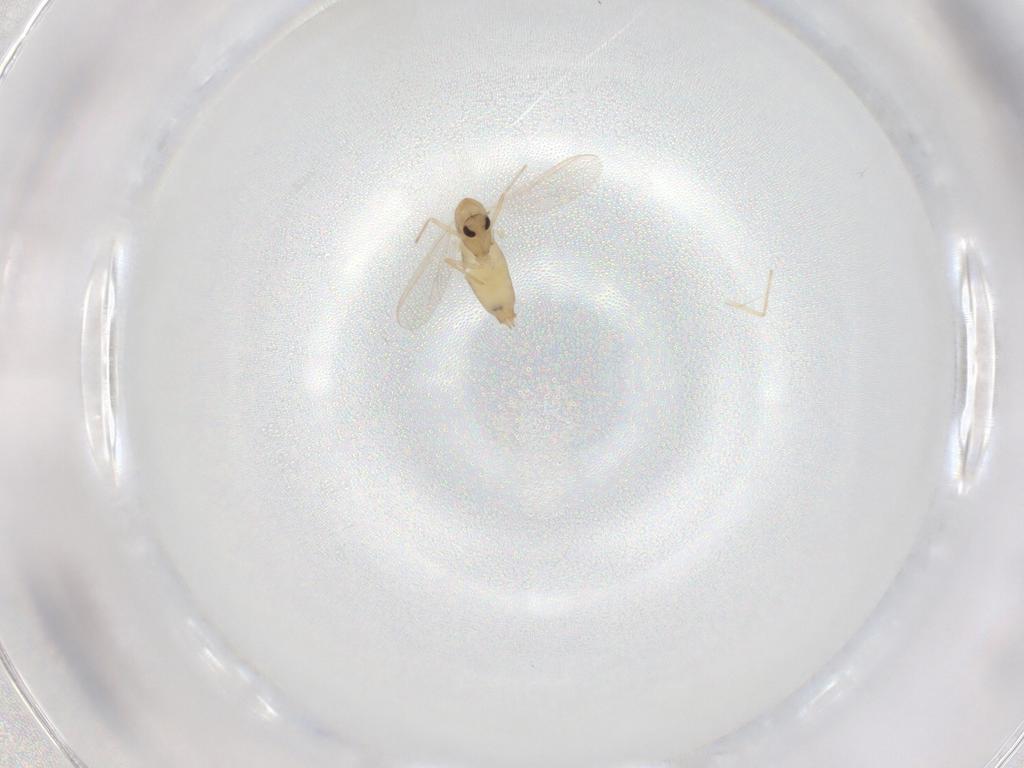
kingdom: Animalia
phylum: Arthropoda
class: Insecta
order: Diptera
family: Chironomidae
